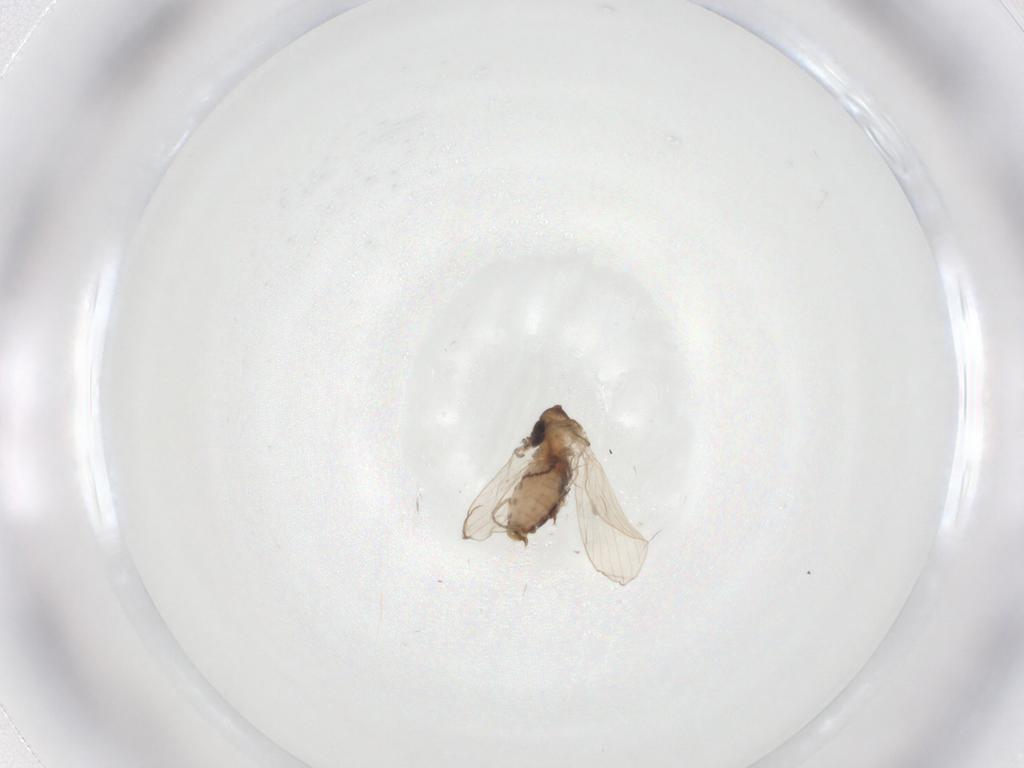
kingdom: Animalia
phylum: Arthropoda
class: Insecta
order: Diptera
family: Psychodidae
